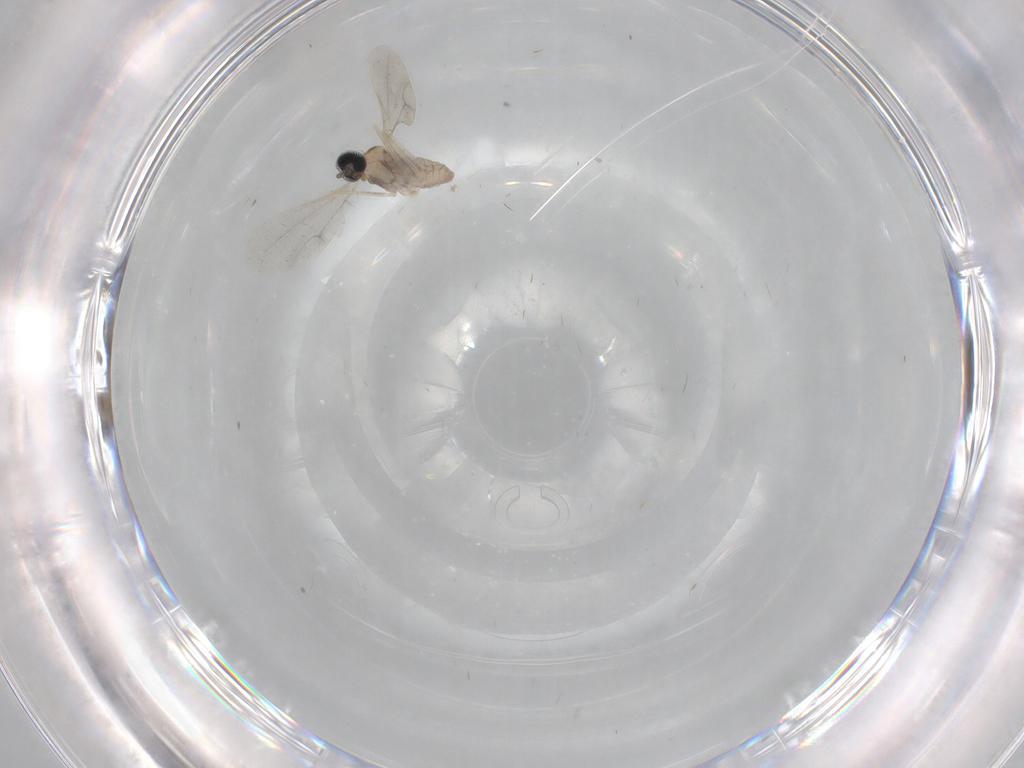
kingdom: Animalia
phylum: Arthropoda
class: Insecta
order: Diptera
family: Cecidomyiidae
